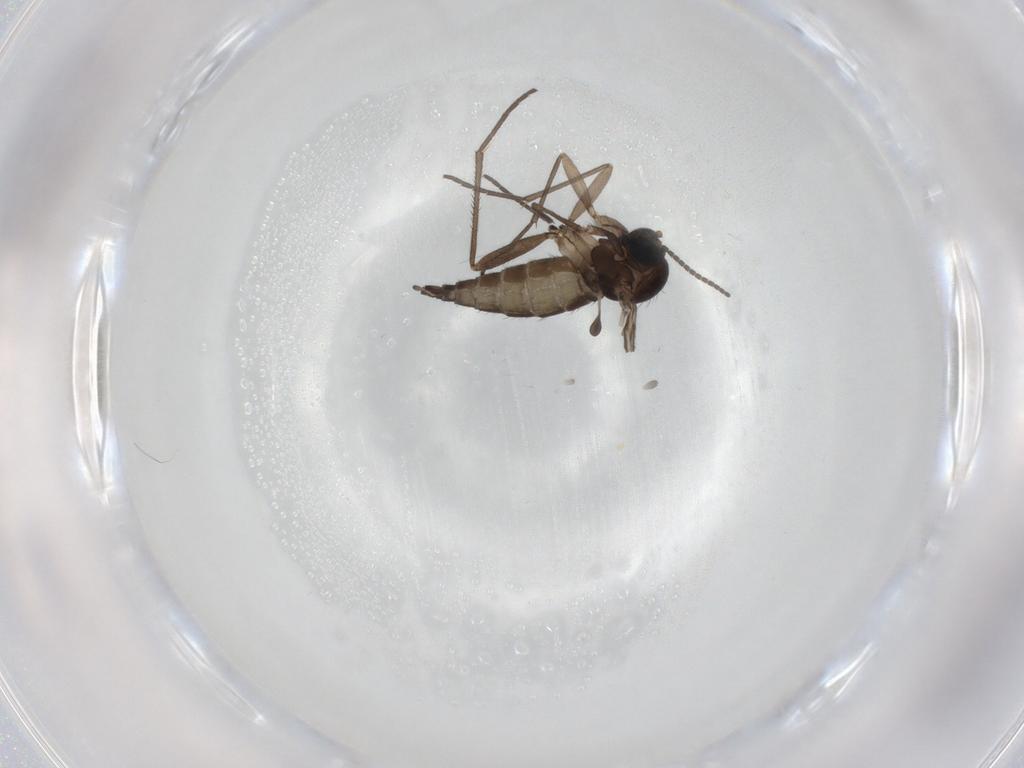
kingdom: Animalia
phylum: Arthropoda
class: Insecta
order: Diptera
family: Sciaridae
